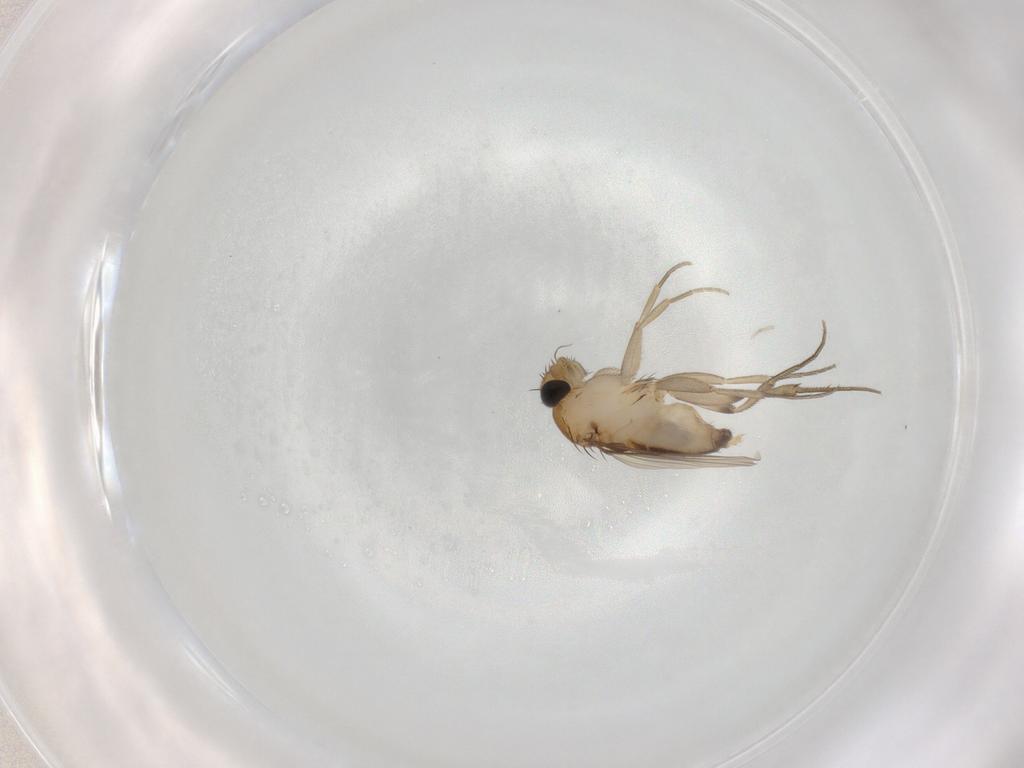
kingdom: Animalia
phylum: Arthropoda
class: Insecta
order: Diptera
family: Phoridae
